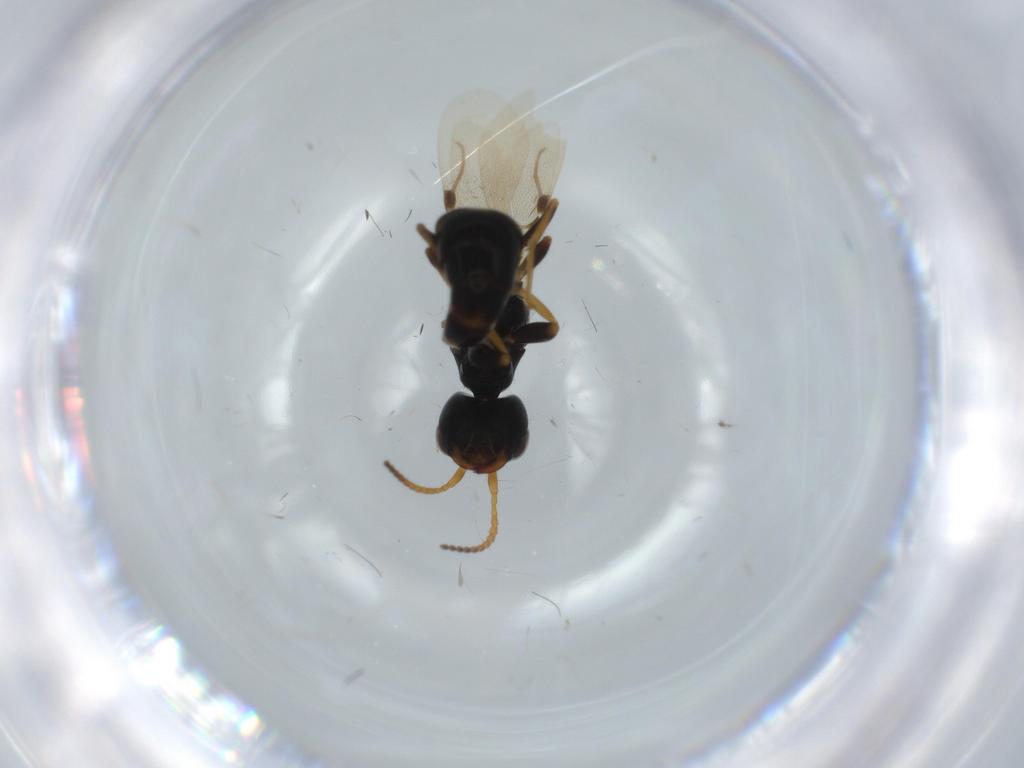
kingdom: Animalia
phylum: Arthropoda
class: Insecta
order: Hymenoptera
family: Bethylidae
